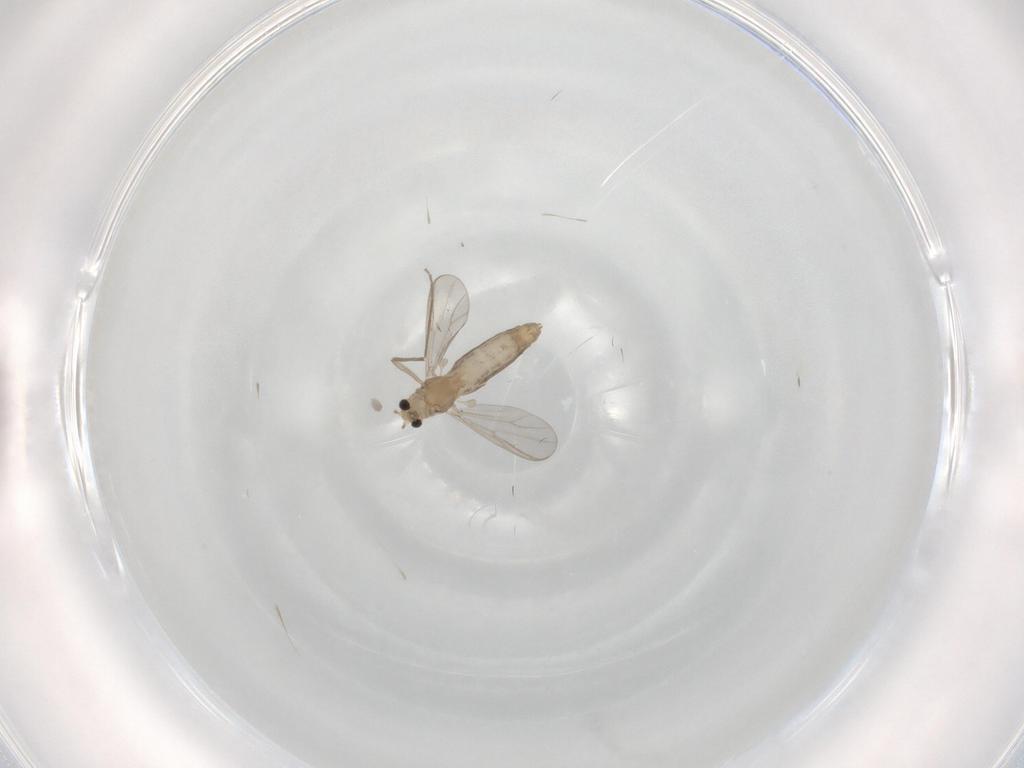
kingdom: Animalia
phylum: Arthropoda
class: Insecta
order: Diptera
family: Chironomidae
